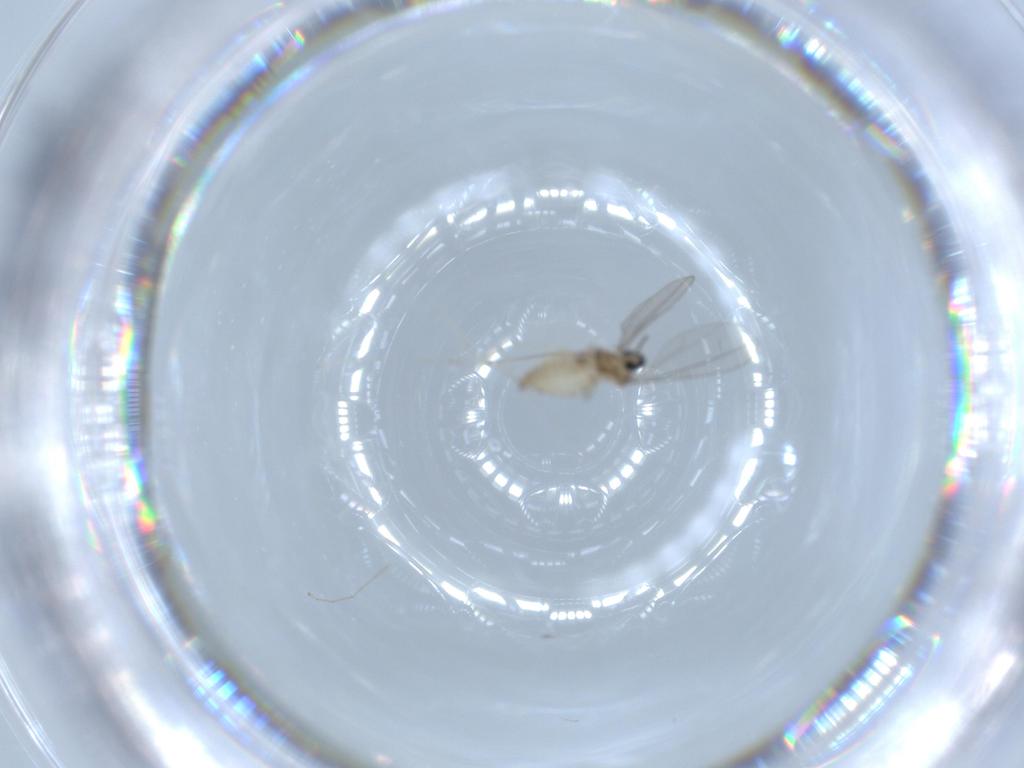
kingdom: Animalia
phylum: Arthropoda
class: Insecta
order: Diptera
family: Cecidomyiidae
